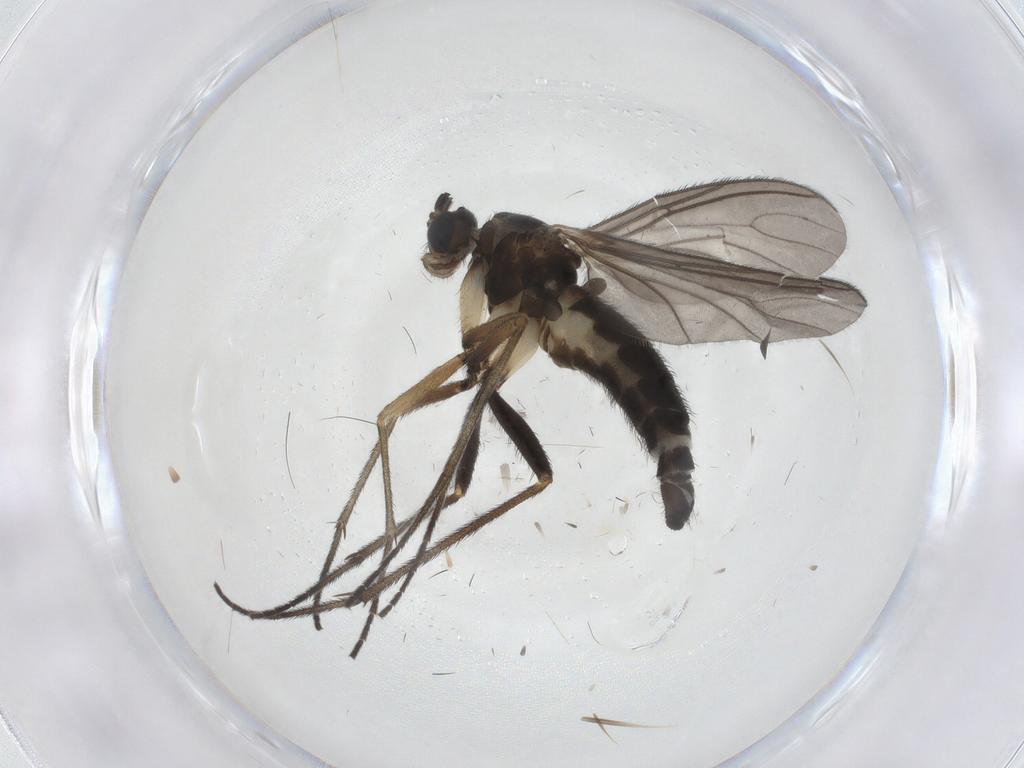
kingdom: Animalia
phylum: Arthropoda
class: Insecta
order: Diptera
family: Sciaridae
